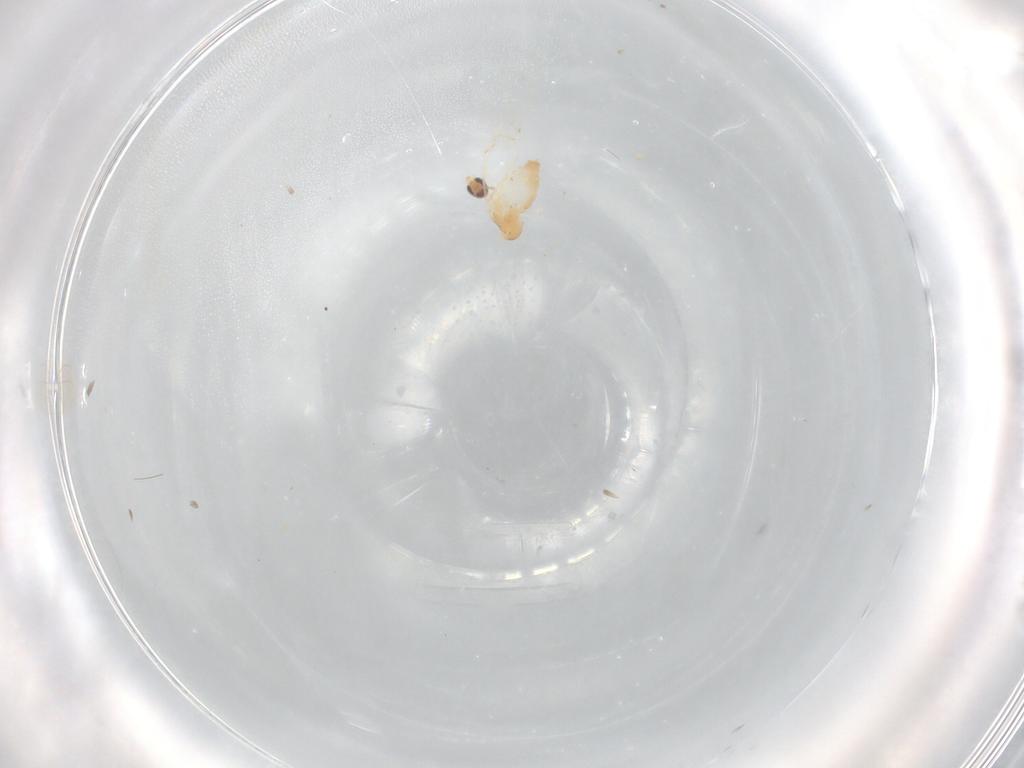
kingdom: Animalia
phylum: Arthropoda
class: Insecta
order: Diptera
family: Cecidomyiidae
